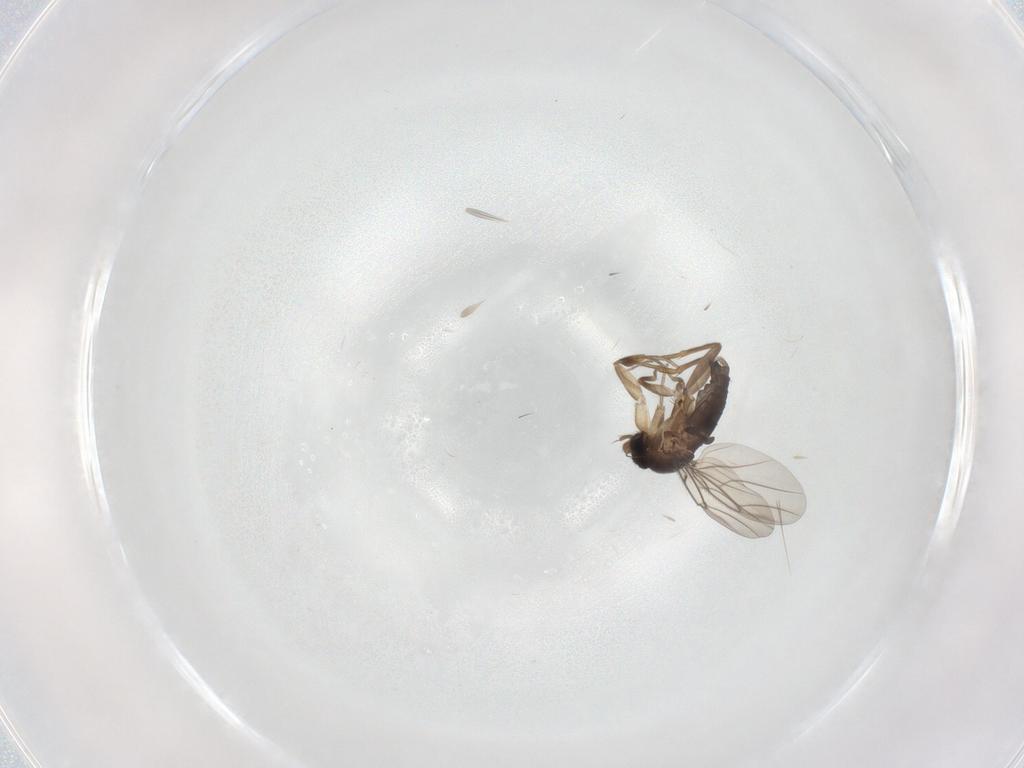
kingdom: Animalia
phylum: Arthropoda
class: Insecta
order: Diptera
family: Phoridae
